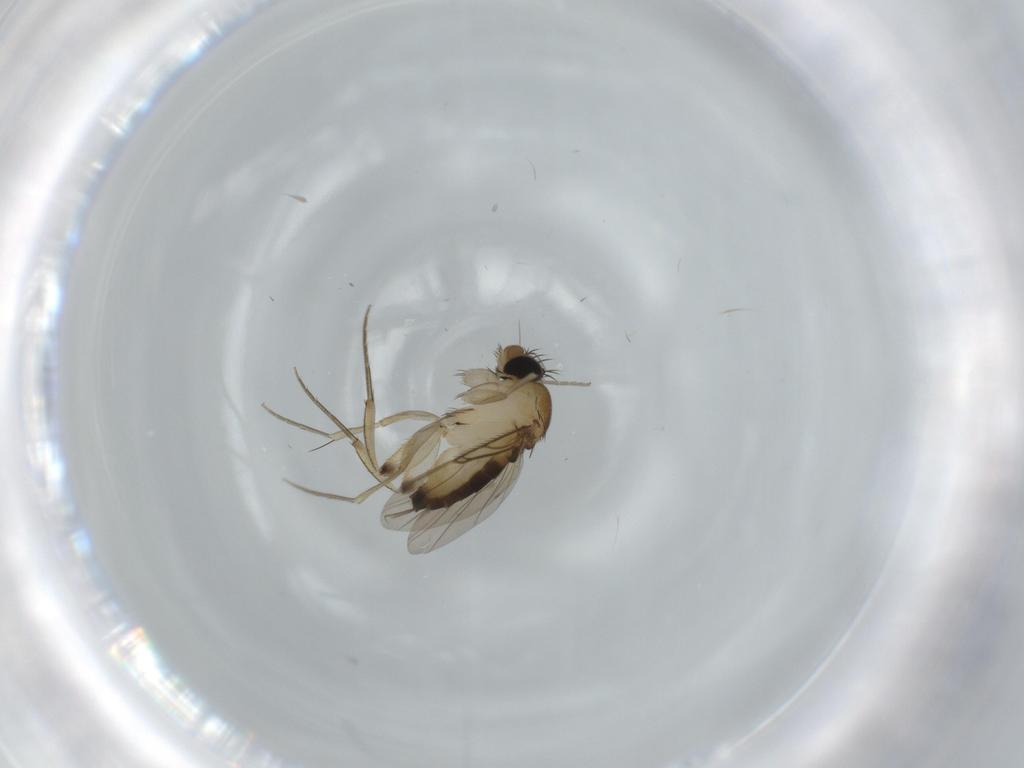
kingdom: Animalia
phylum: Arthropoda
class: Insecta
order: Diptera
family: Phoridae
